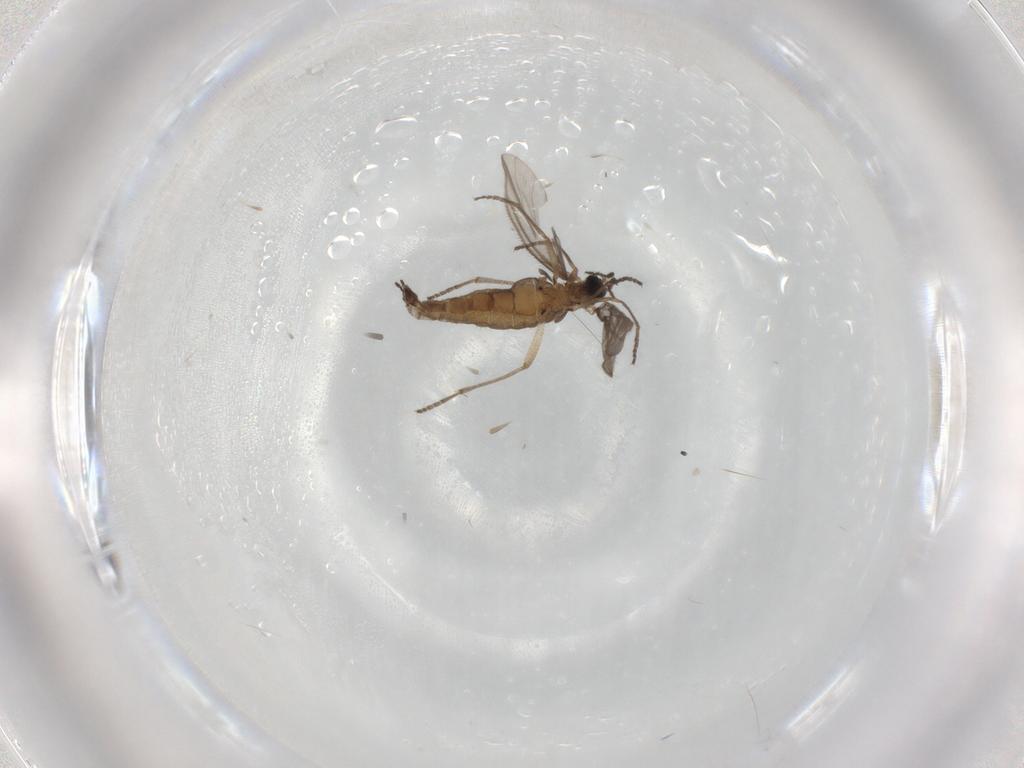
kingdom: Animalia
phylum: Arthropoda
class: Insecta
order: Diptera
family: Sciaridae
